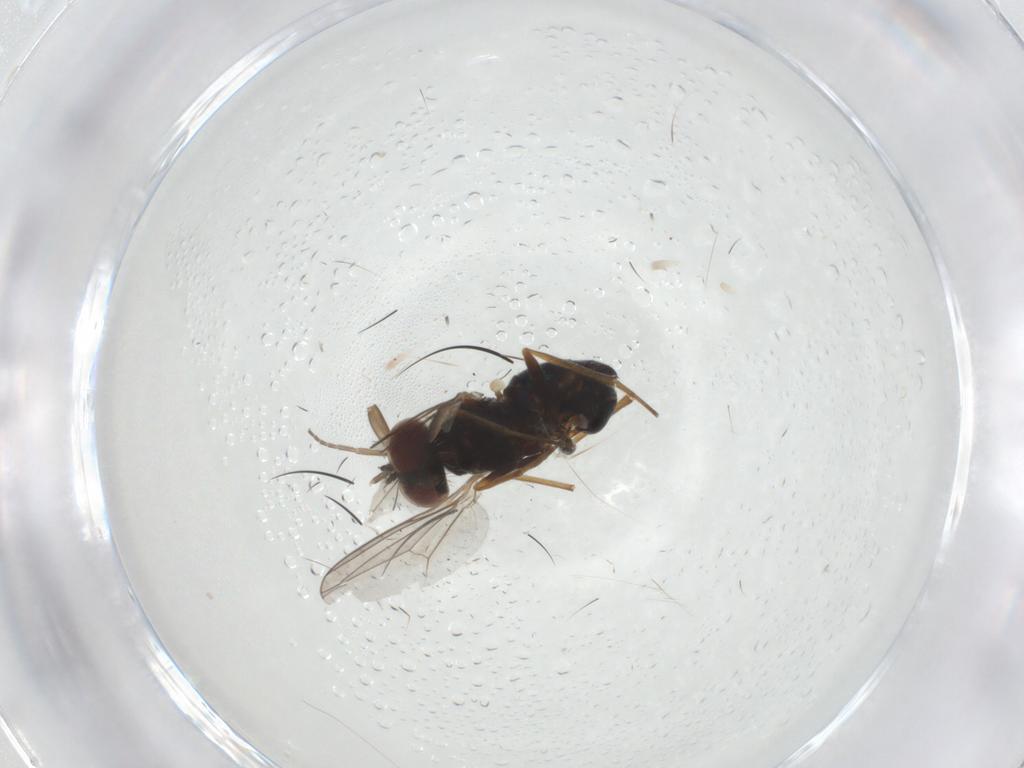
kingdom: Animalia
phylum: Arthropoda
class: Insecta
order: Diptera
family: Dolichopodidae
